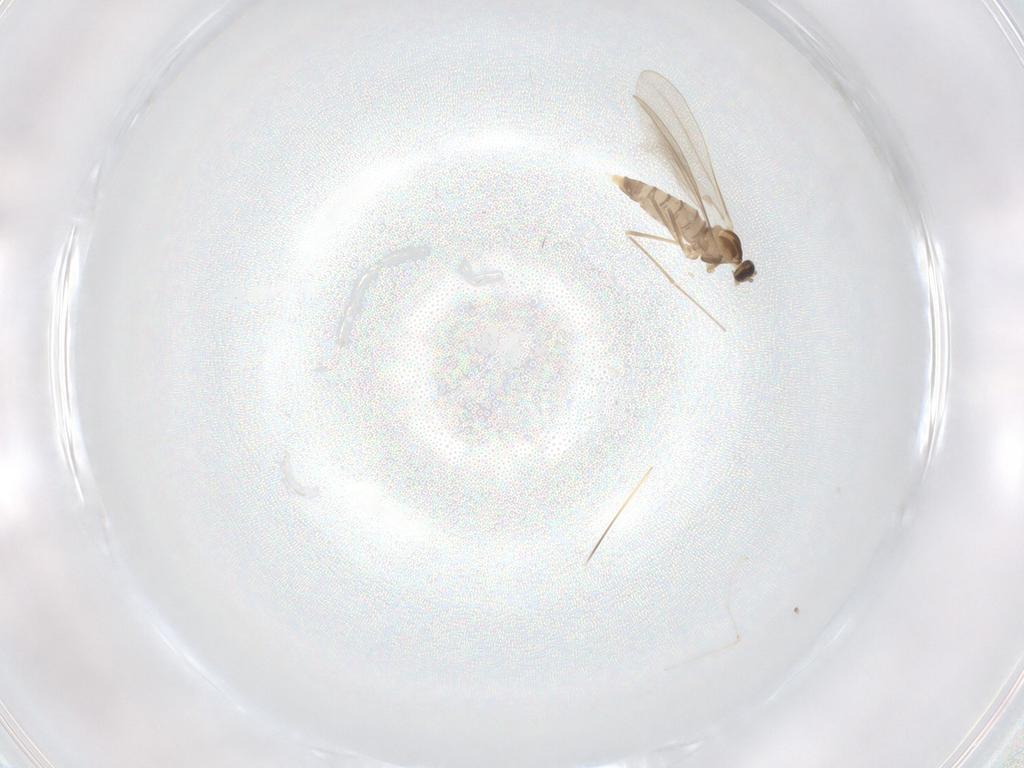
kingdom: Animalia
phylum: Arthropoda
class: Insecta
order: Diptera
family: Cecidomyiidae
